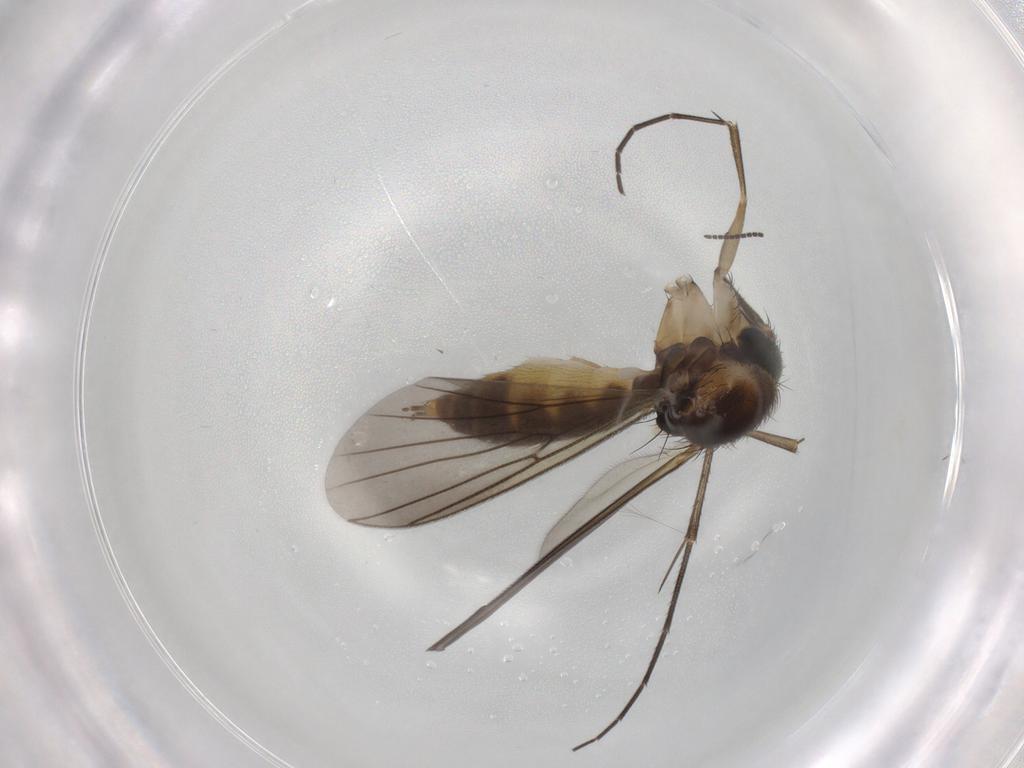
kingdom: Animalia
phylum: Arthropoda
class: Insecta
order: Diptera
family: Mycetophilidae
